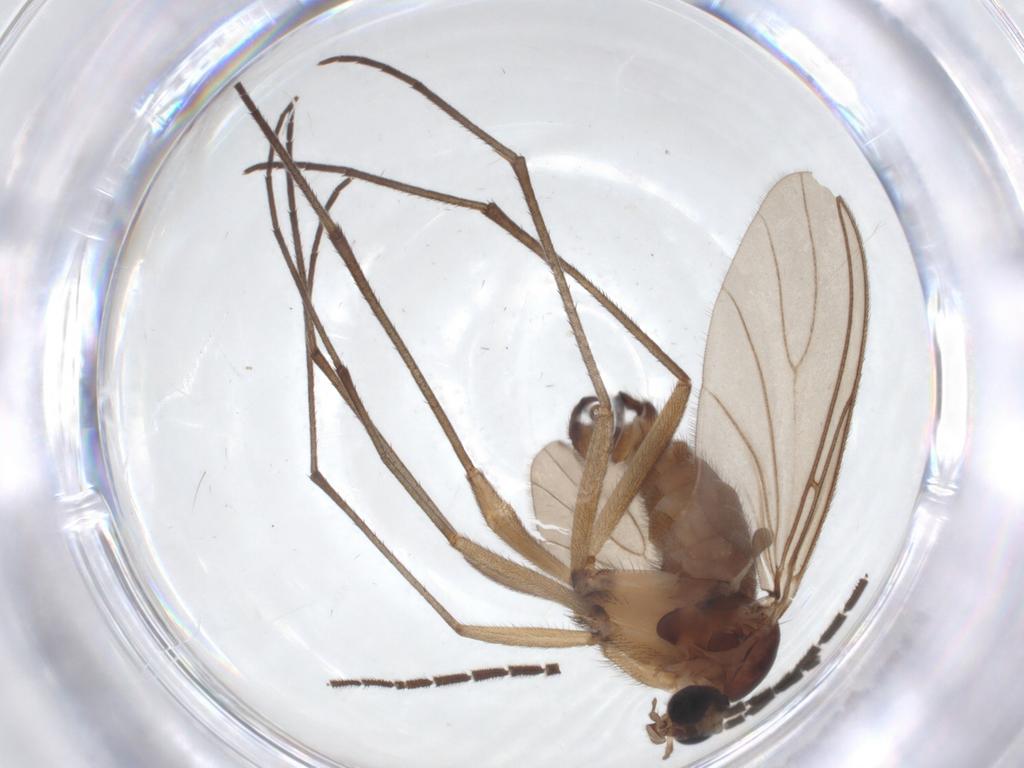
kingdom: Animalia
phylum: Arthropoda
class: Insecta
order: Diptera
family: Sciaridae
